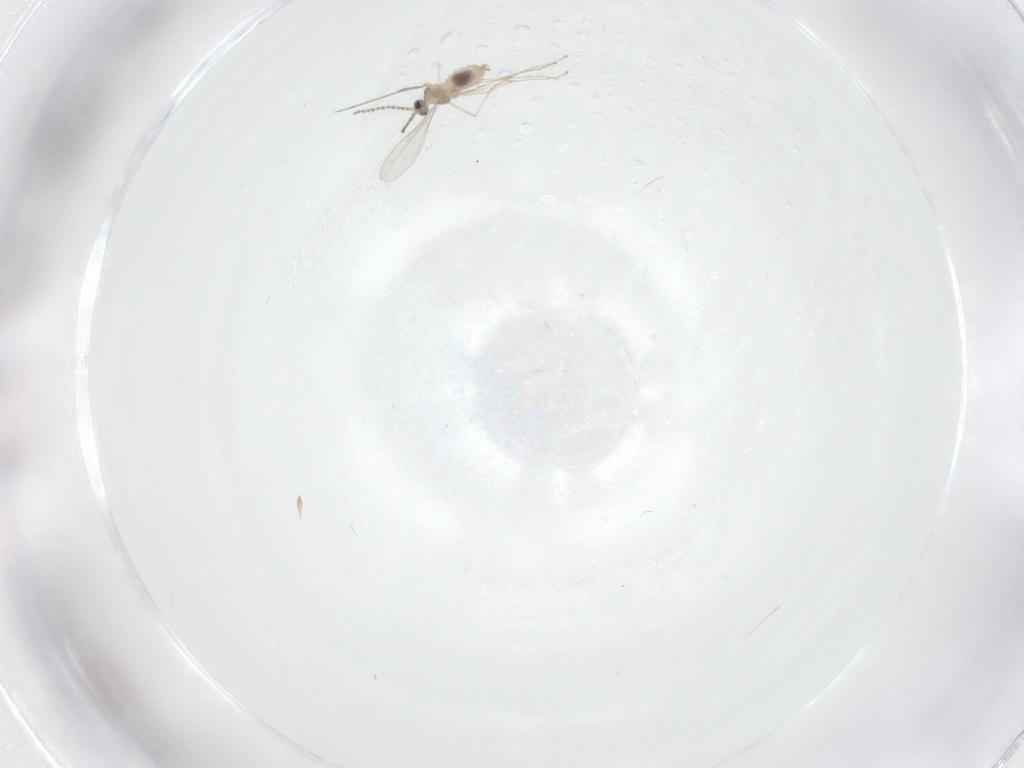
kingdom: Animalia
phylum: Arthropoda
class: Insecta
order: Diptera
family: Cecidomyiidae
